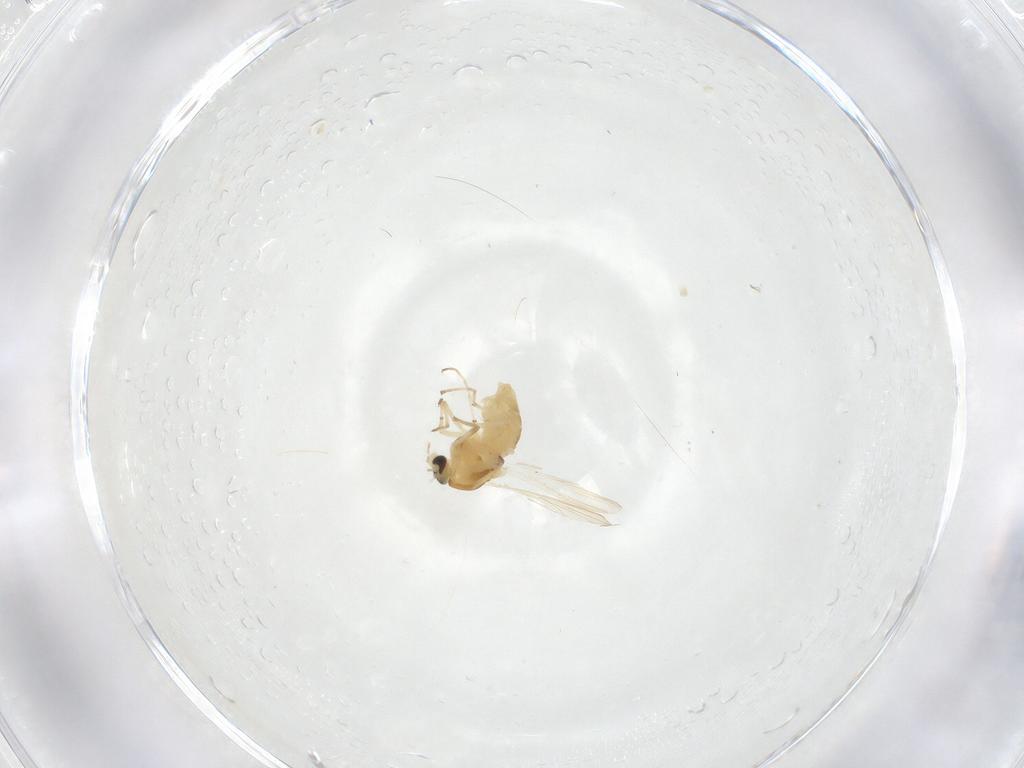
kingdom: Animalia
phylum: Arthropoda
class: Insecta
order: Diptera
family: Chironomidae
